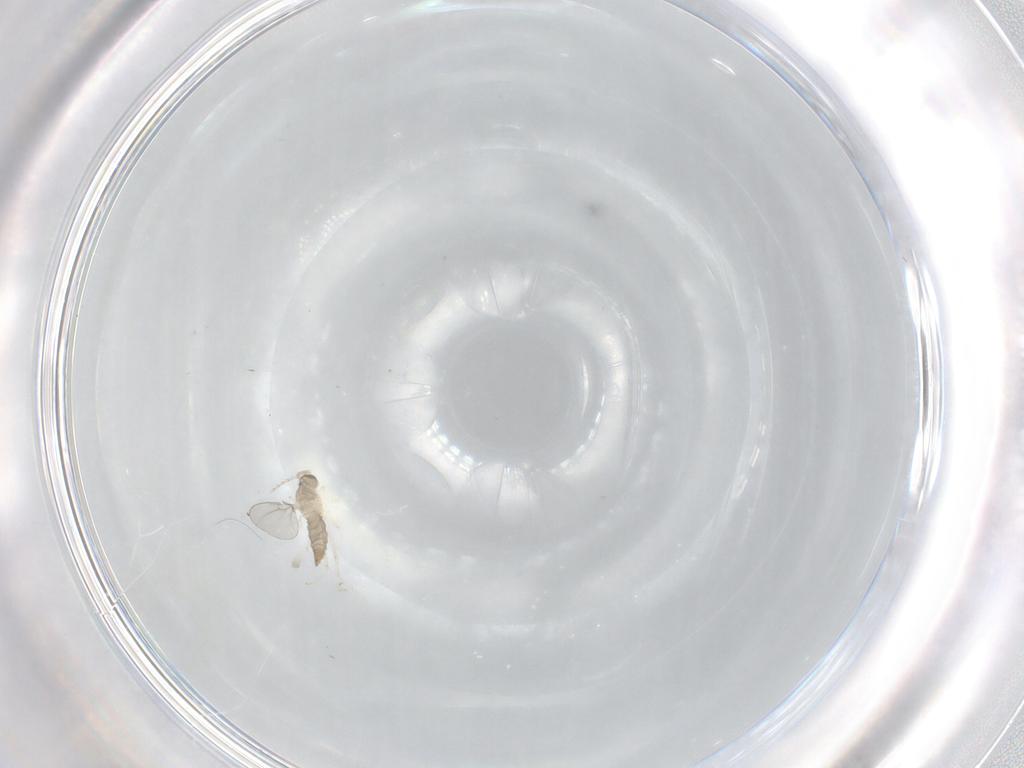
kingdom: Animalia
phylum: Arthropoda
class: Insecta
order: Diptera
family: Cecidomyiidae
